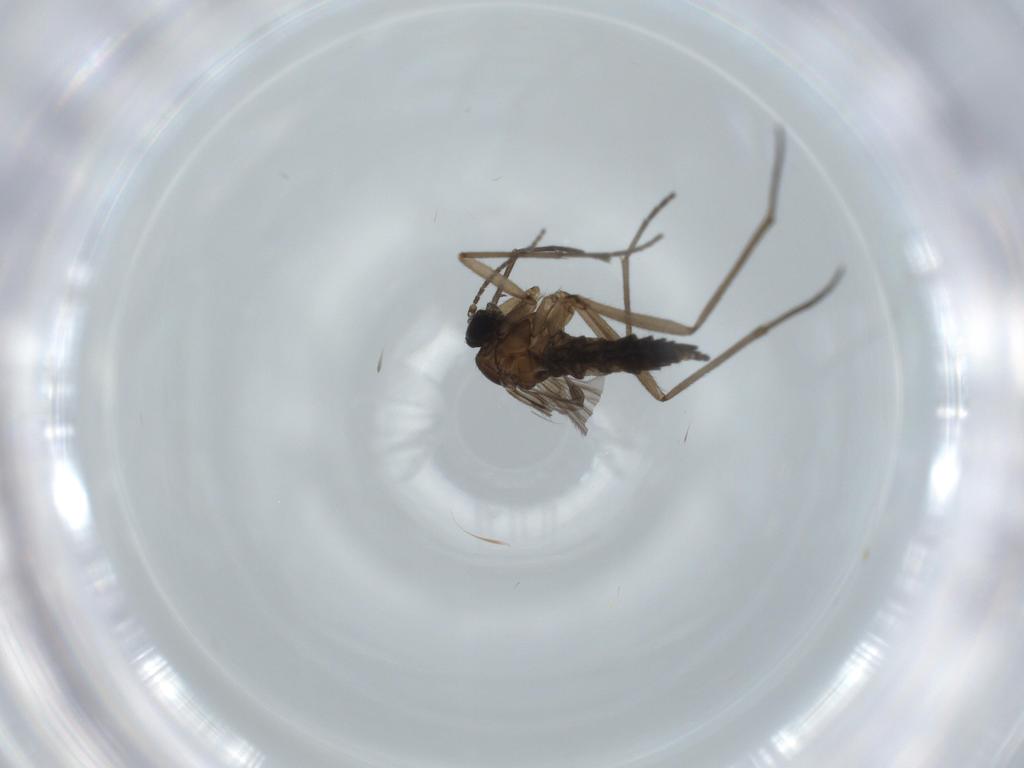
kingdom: Animalia
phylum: Arthropoda
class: Insecta
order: Diptera
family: Sciaridae
